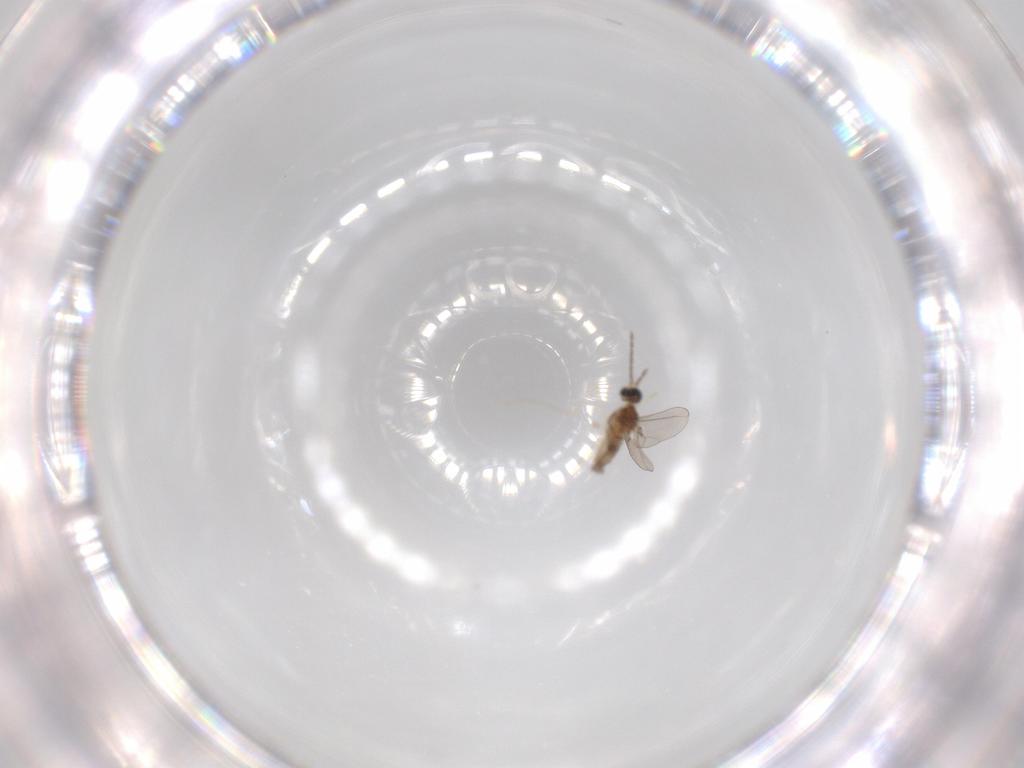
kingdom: Animalia
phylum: Arthropoda
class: Insecta
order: Diptera
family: Cecidomyiidae
